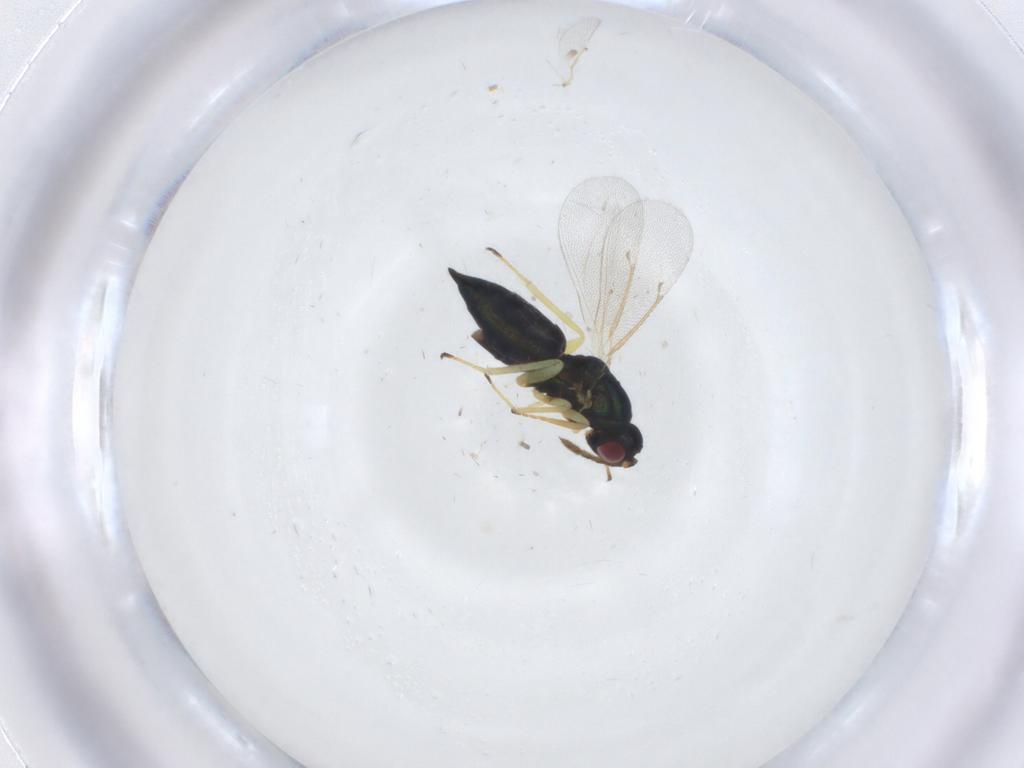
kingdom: Animalia
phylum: Arthropoda
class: Insecta
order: Hymenoptera
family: Eulophidae
